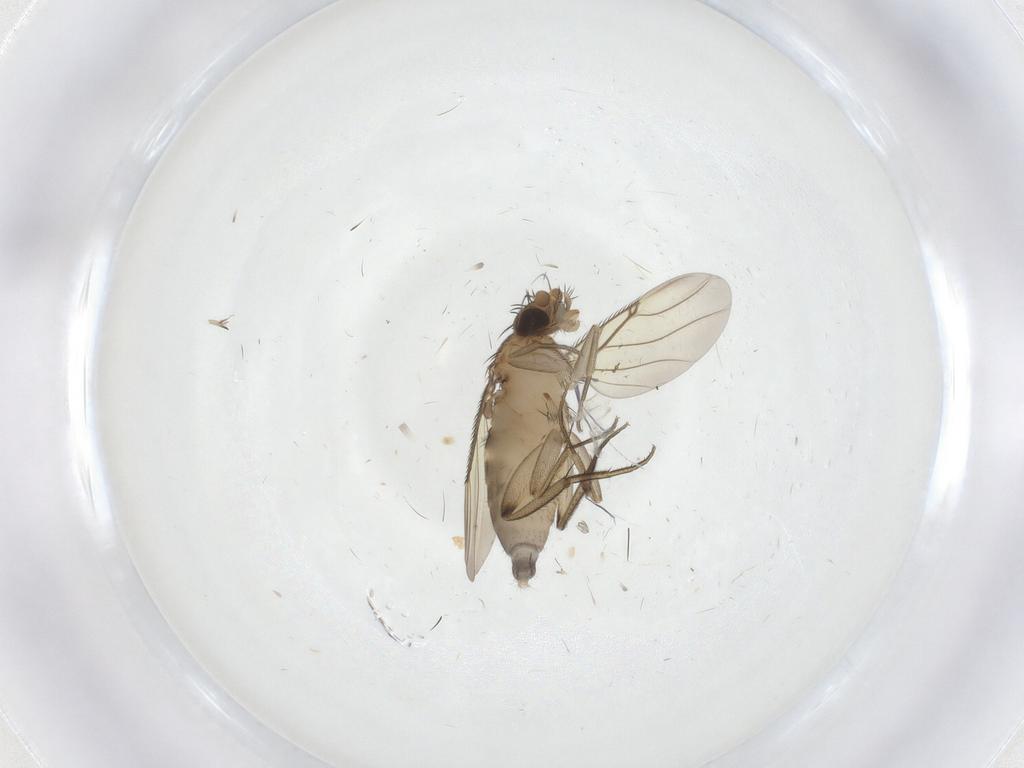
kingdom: Animalia
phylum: Arthropoda
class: Insecta
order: Diptera
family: Phoridae
